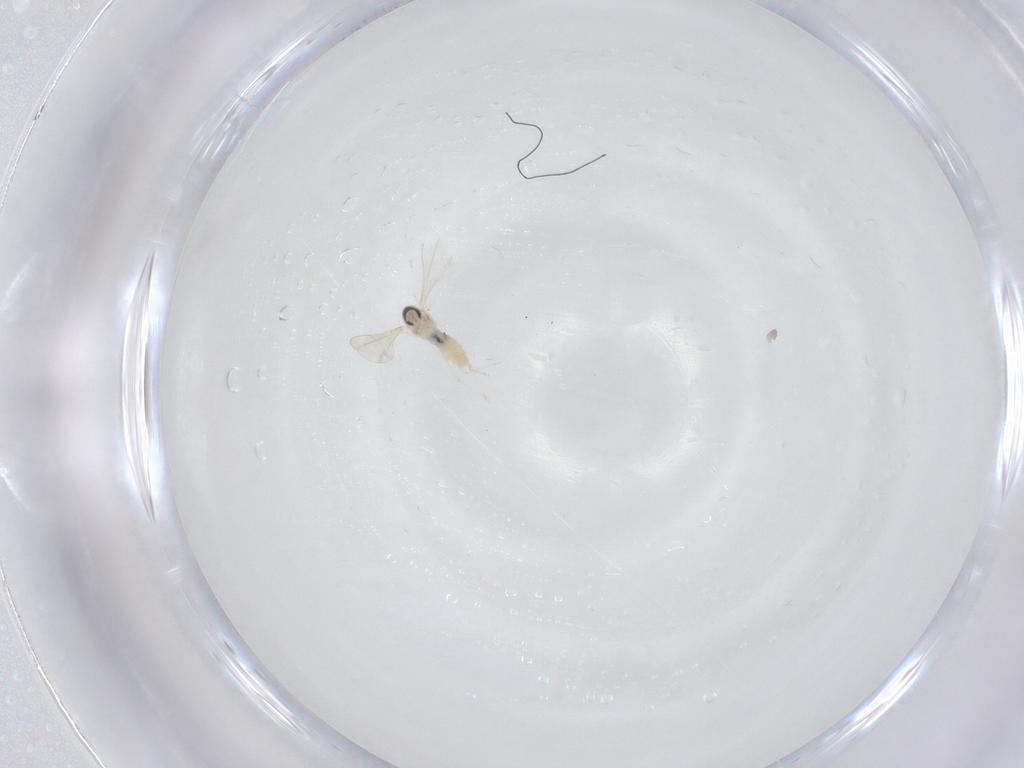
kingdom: Animalia
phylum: Arthropoda
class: Insecta
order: Diptera
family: Cecidomyiidae
